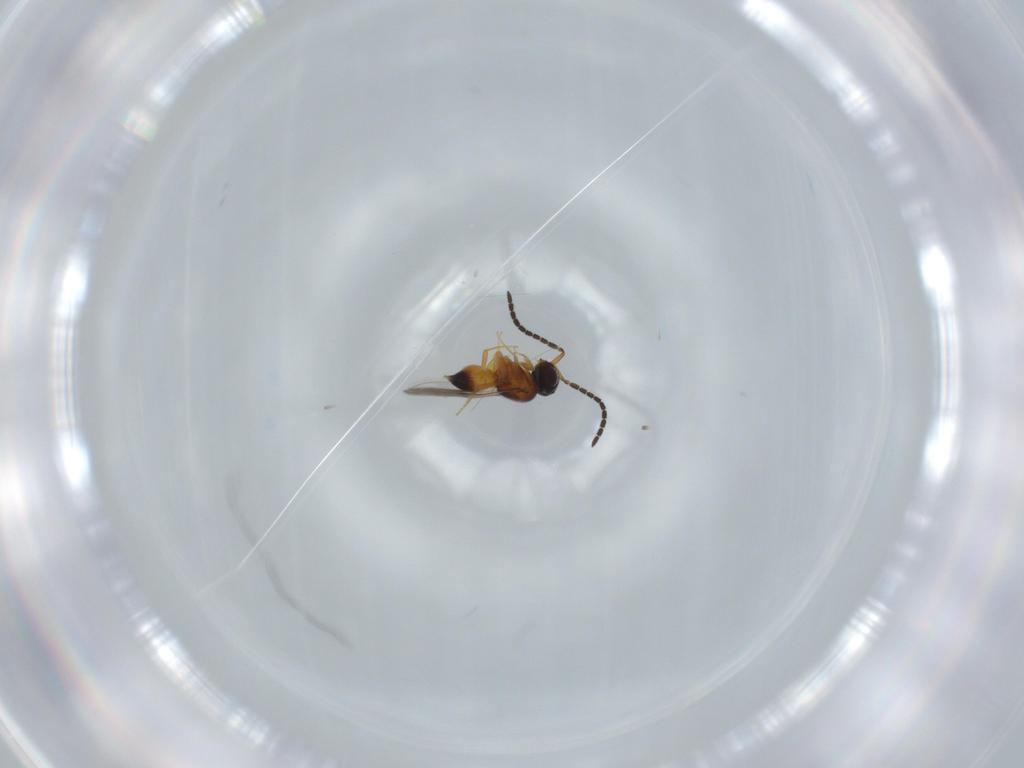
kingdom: Animalia
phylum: Arthropoda
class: Insecta
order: Hymenoptera
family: Ceraphronidae
